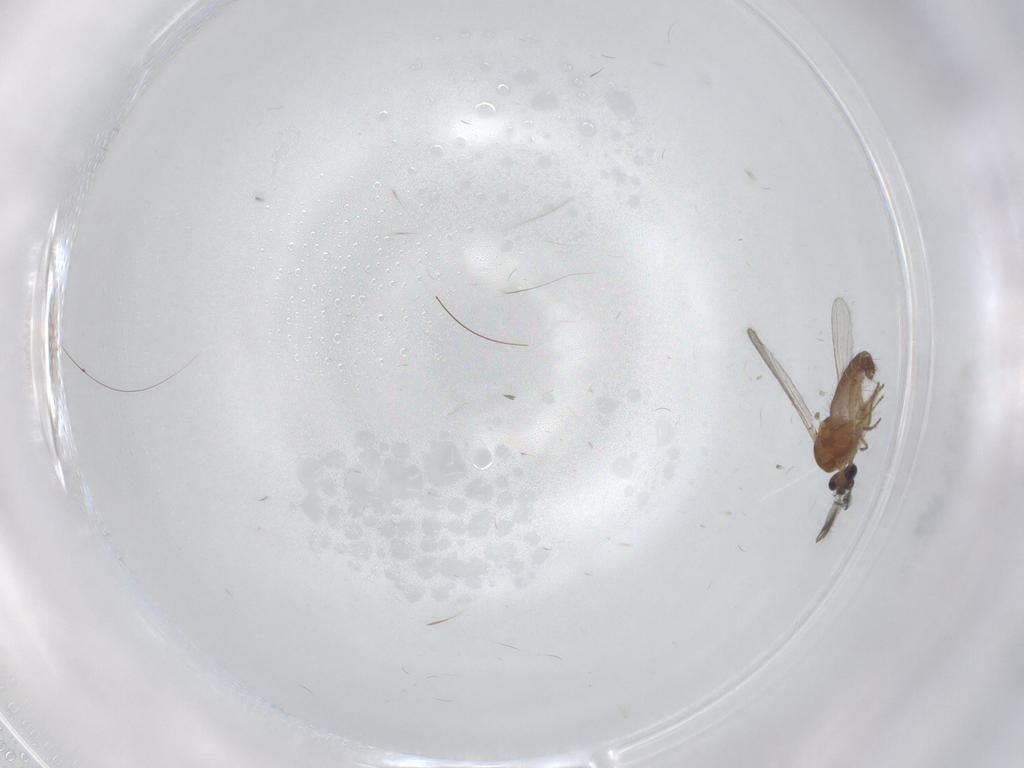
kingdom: Animalia
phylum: Arthropoda
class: Insecta
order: Diptera
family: Ceratopogonidae
